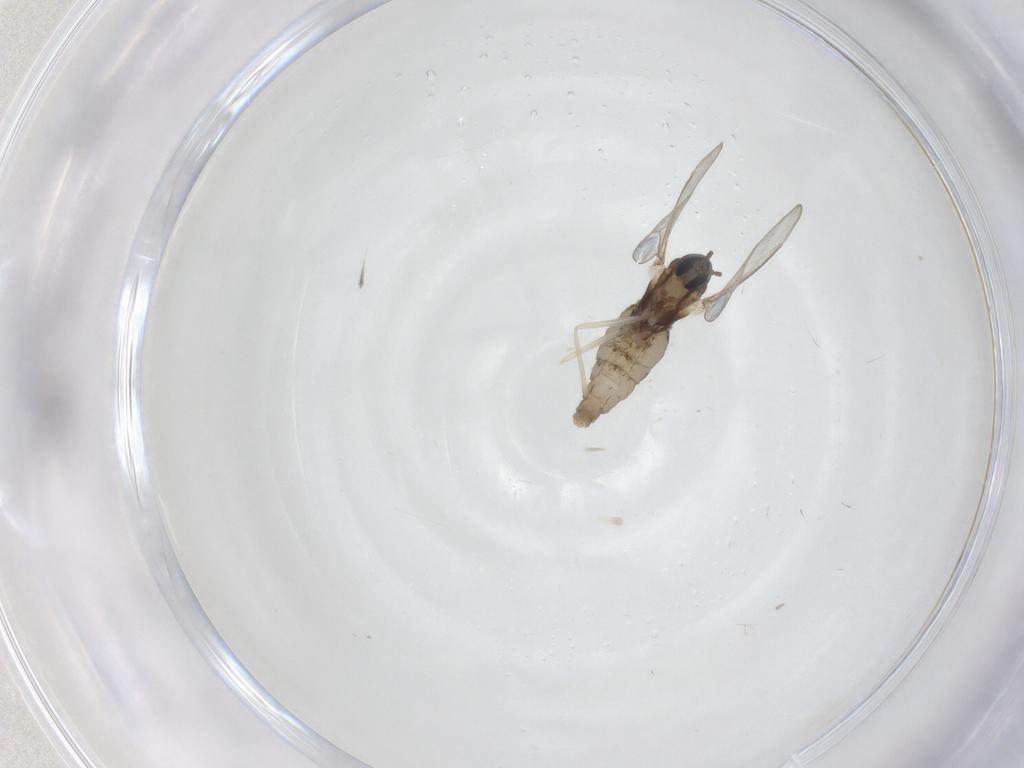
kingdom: Animalia
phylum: Arthropoda
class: Insecta
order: Diptera
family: Cecidomyiidae
